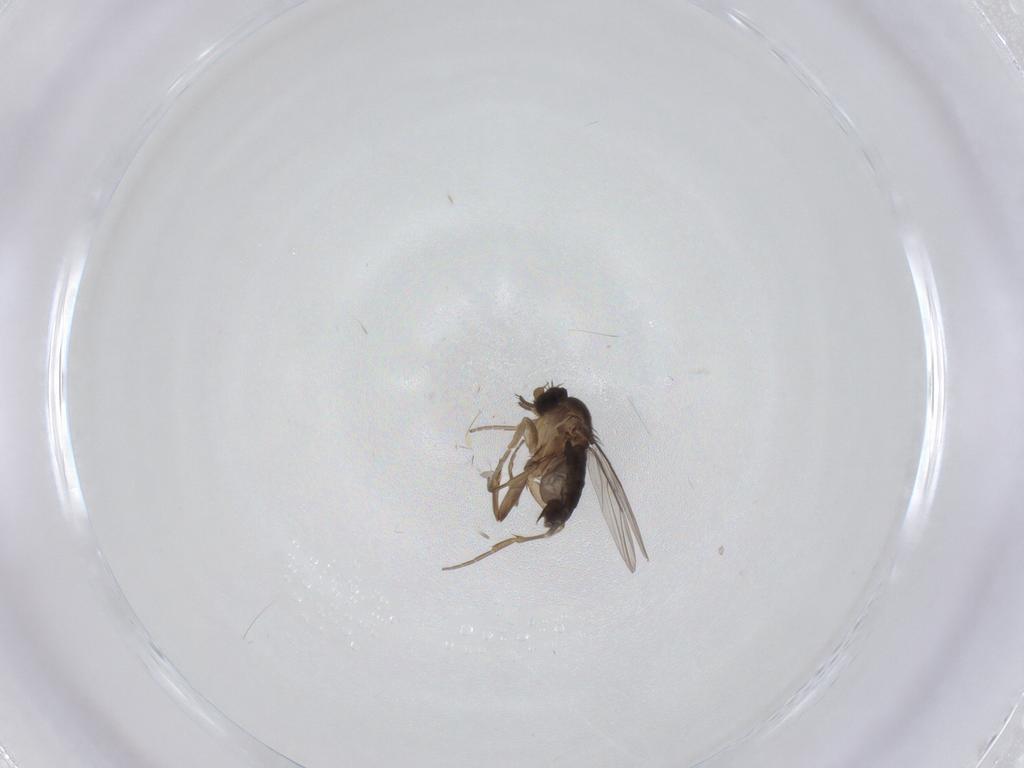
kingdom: Animalia
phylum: Arthropoda
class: Insecta
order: Diptera
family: Phoridae
